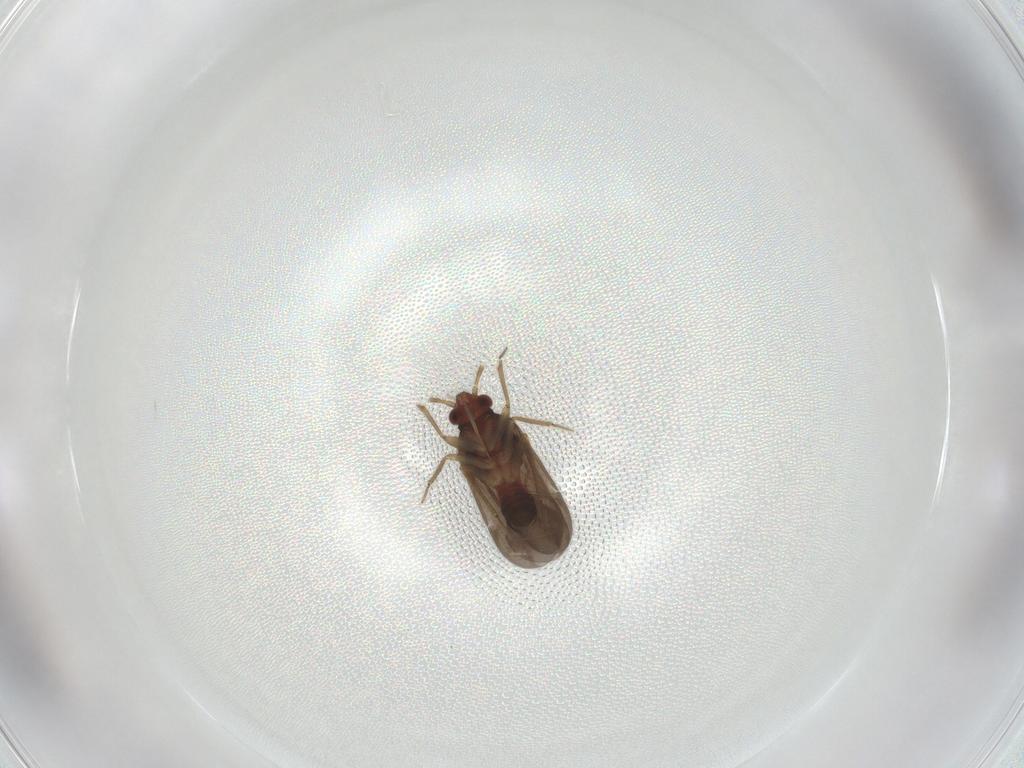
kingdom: Animalia
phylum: Arthropoda
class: Insecta
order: Hemiptera
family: Ceratocombidae
